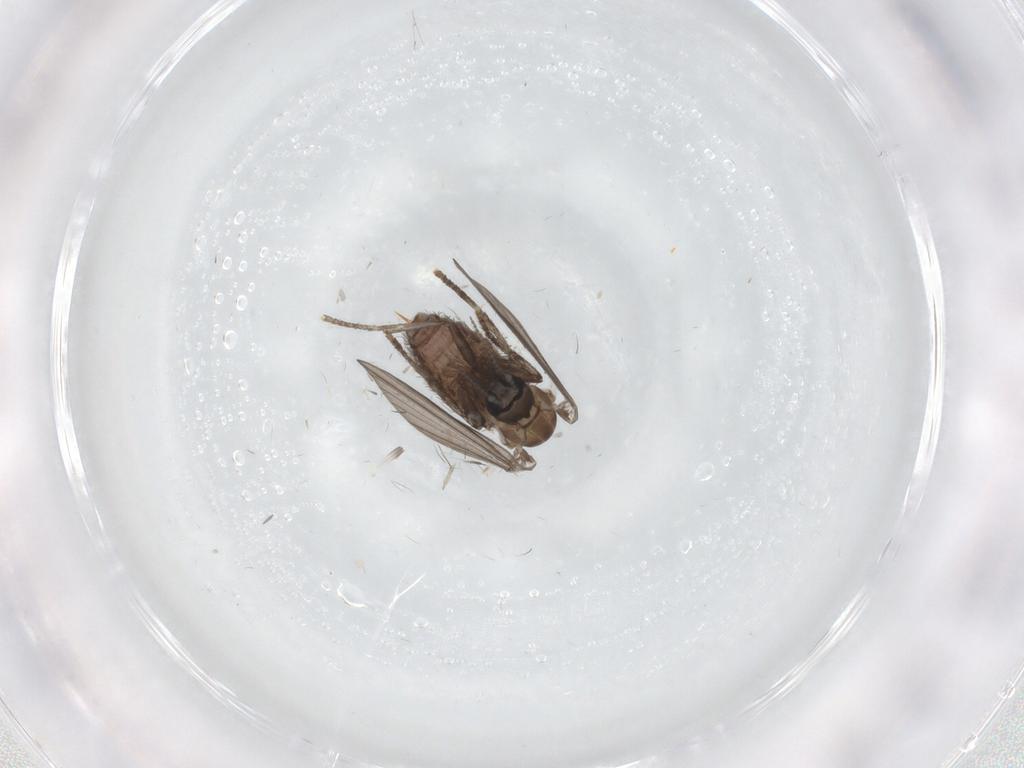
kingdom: Animalia
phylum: Arthropoda
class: Insecta
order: Diptera
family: Psychodidae
